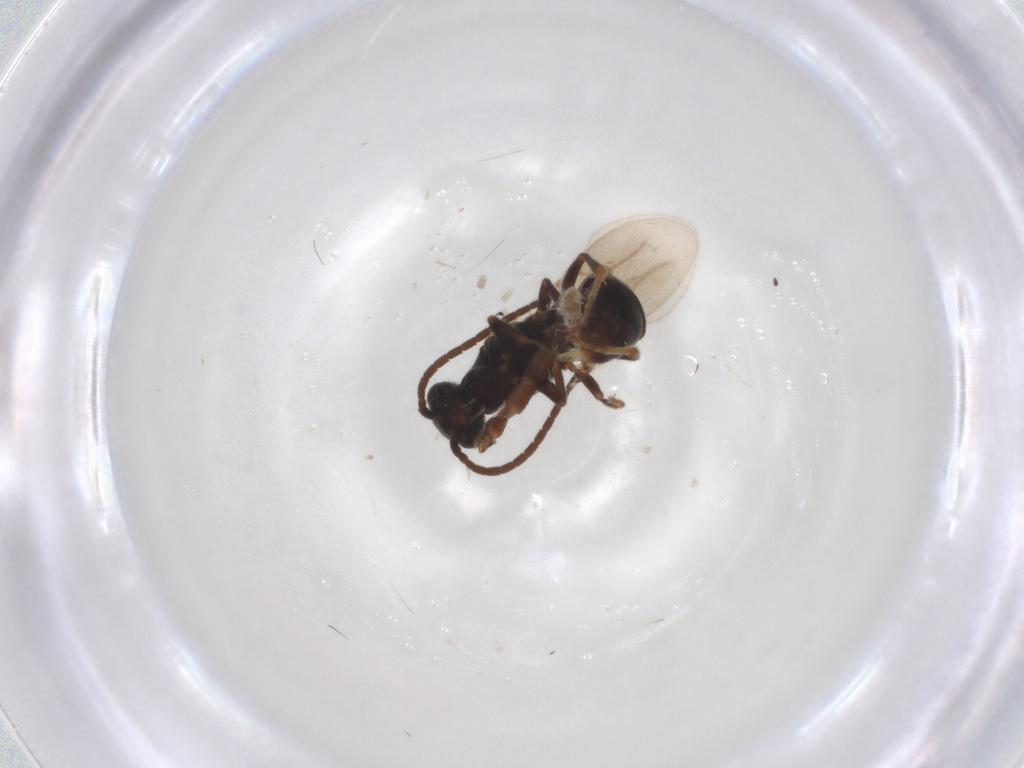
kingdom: Animalia
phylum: Arthropoda
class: Insecta
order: Hymenoptera
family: Bethylidae
